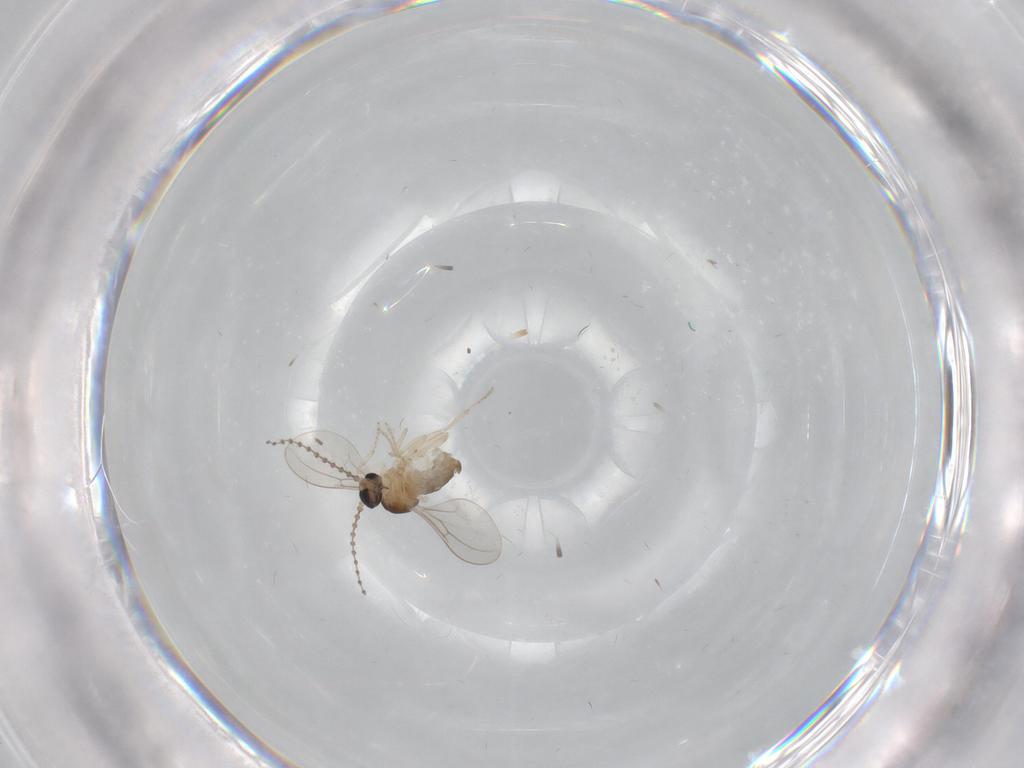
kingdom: Animalia
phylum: Arthropoda
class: Insecta
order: Diptera
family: Cecidomyiidae
